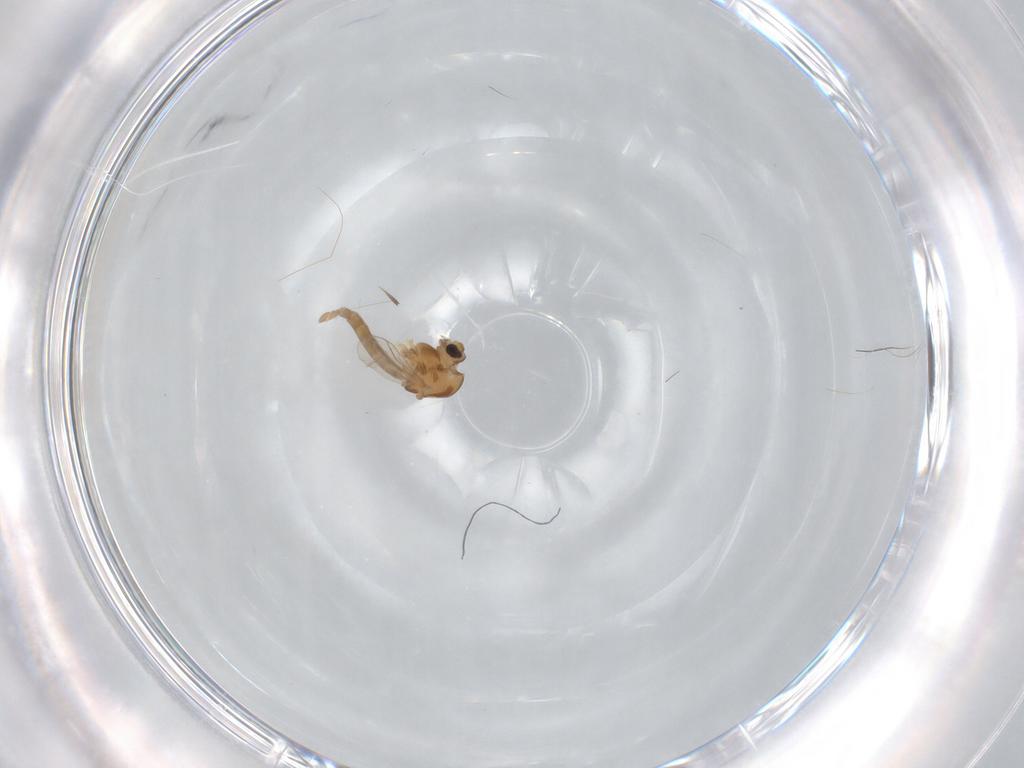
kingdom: Animalia
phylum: Arthropoda
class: Insecta
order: Diptera
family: Chironomidae
